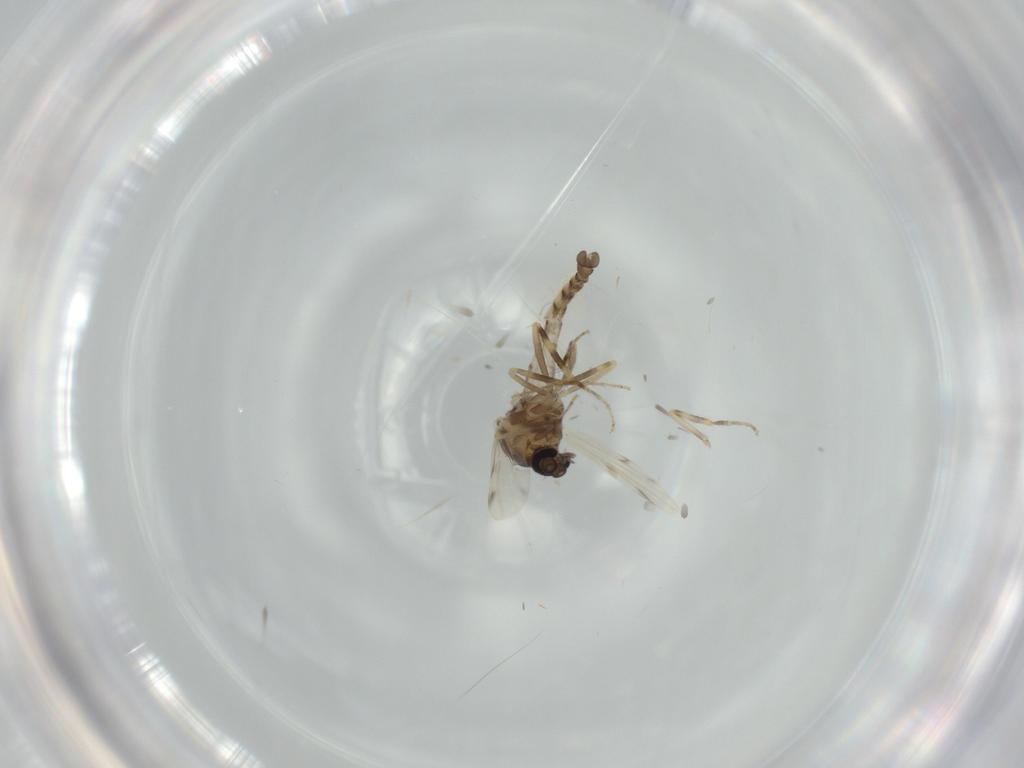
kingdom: Animalia
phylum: Arthropoda
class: Insecta
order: Diptera
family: Ceratopogonidae
